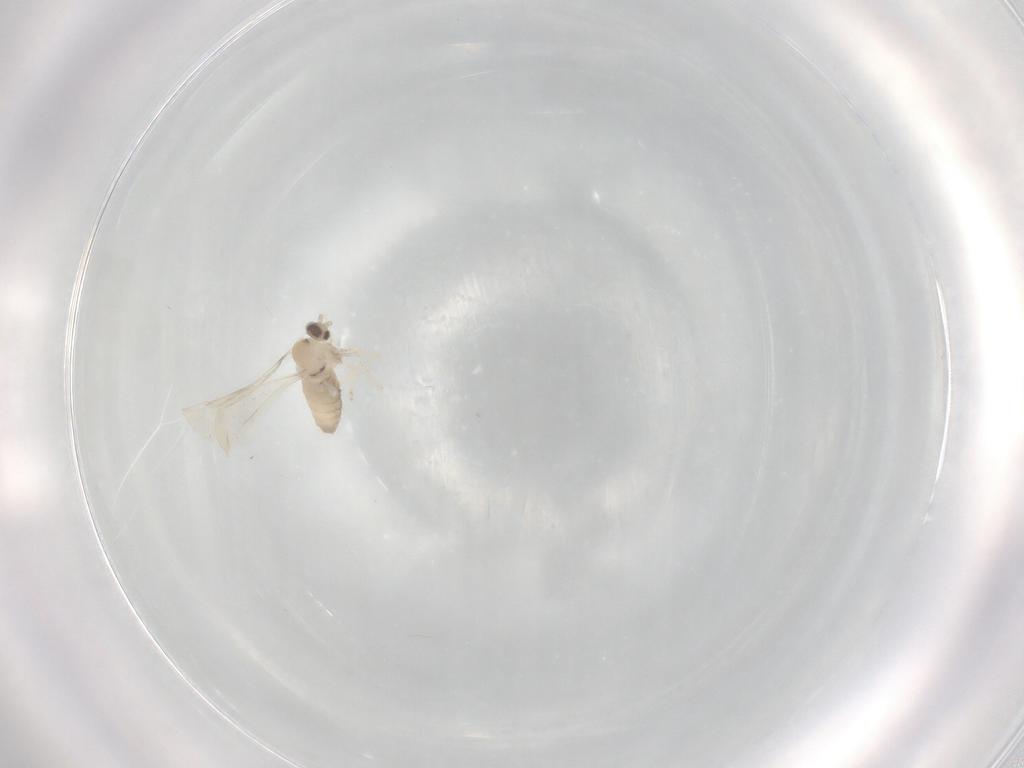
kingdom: Animalia
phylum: Arthropoda
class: Insecta
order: Diptera
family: Cecidomyiidae
